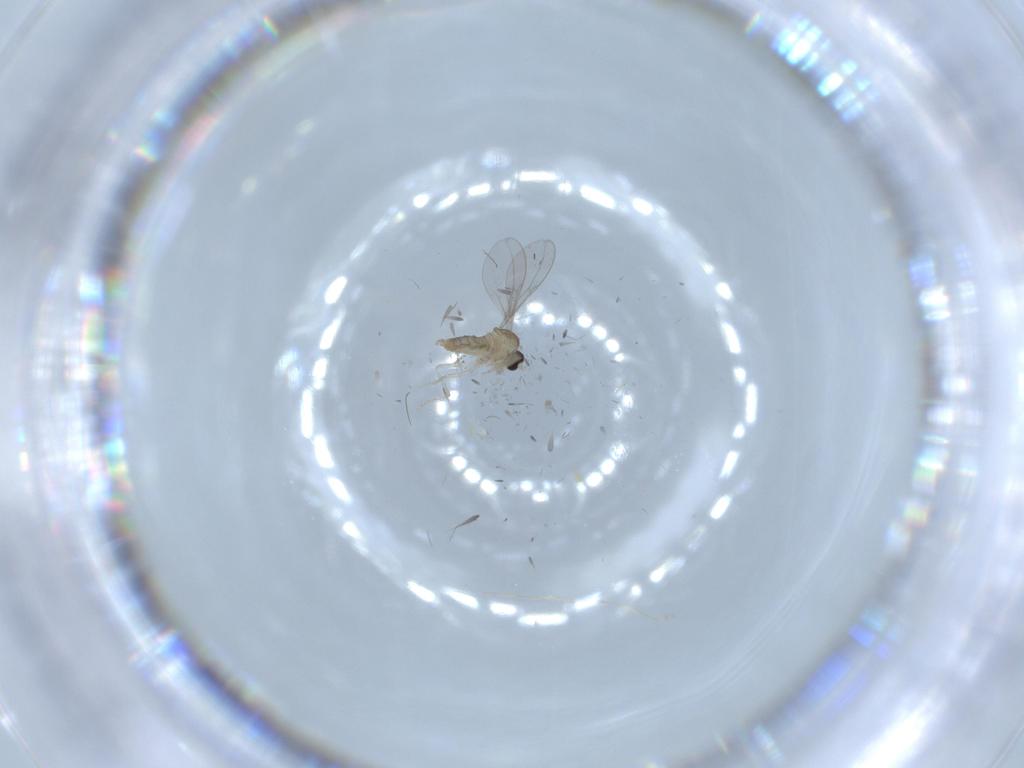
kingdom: Animalia
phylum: Arthropoda
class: Insecta
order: Diptera
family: Cecidomyiidae
